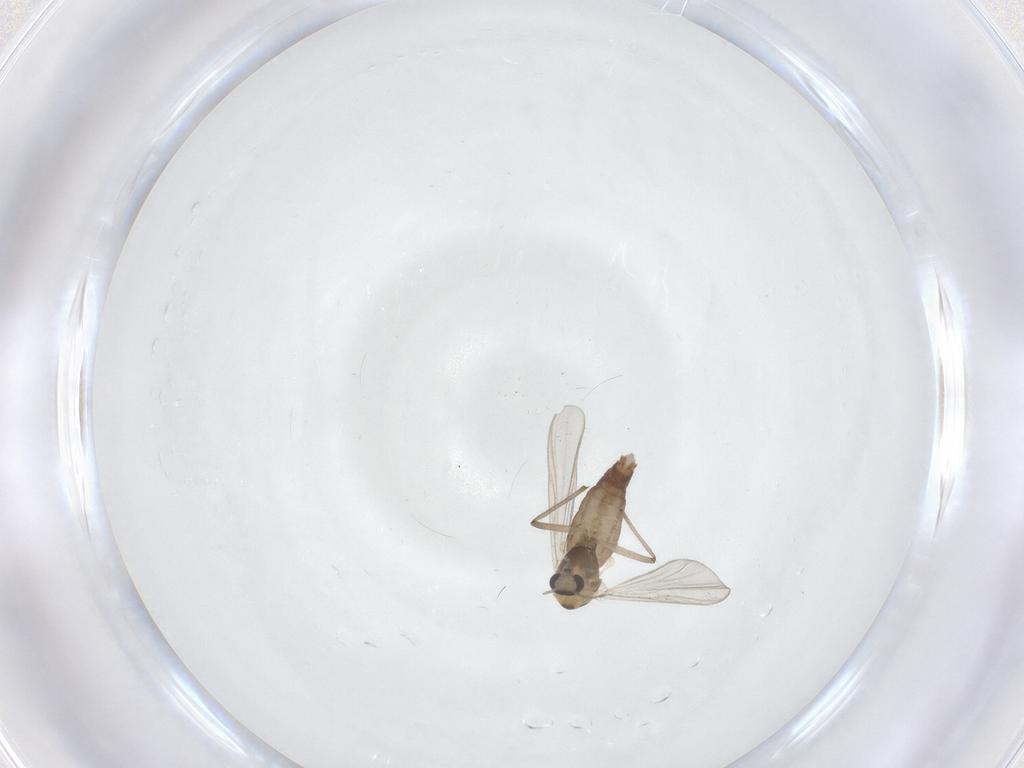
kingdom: Animalia
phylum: Arthropoda
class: Insecta
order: Diptera
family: Chironomidae
